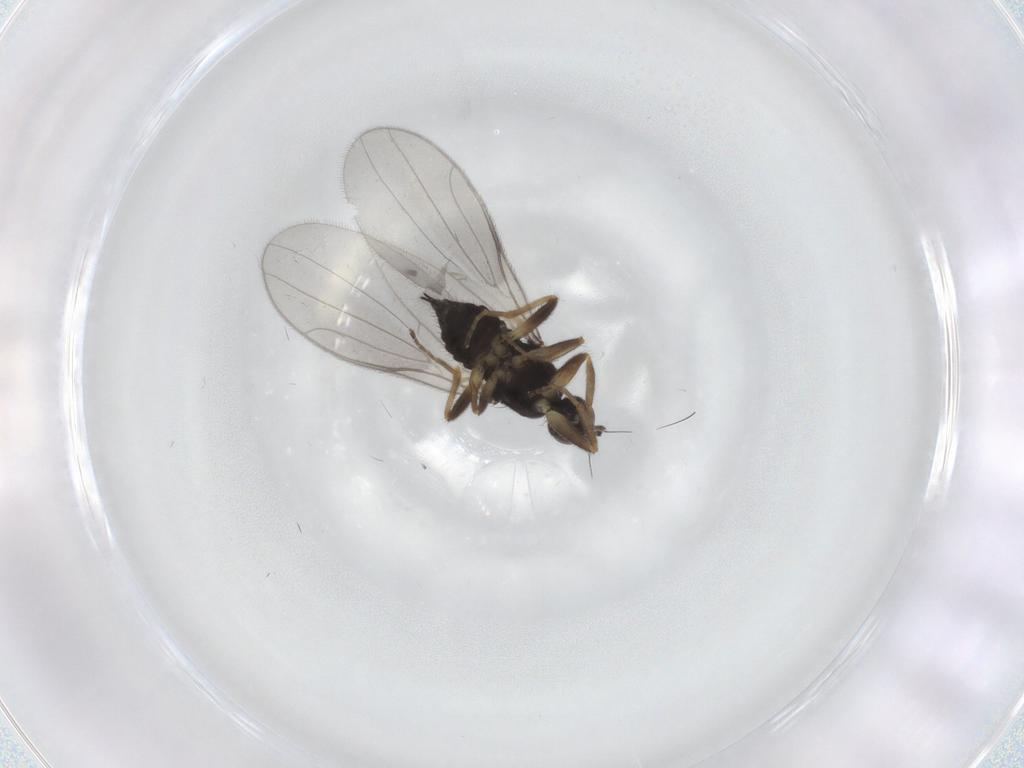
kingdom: Animalia
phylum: Arthropoda
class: Insecta
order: Diptera
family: Hybotidae
